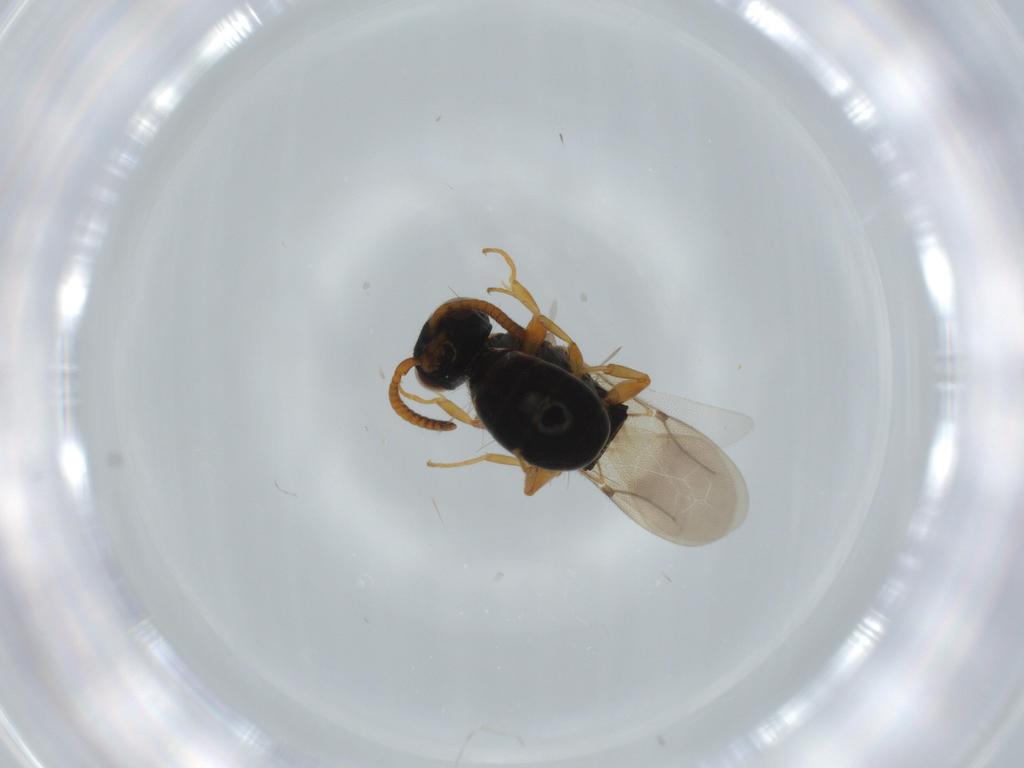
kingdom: Animalia
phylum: Arthropoda
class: Insecta
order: Hymenoptera
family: Bethylidae
